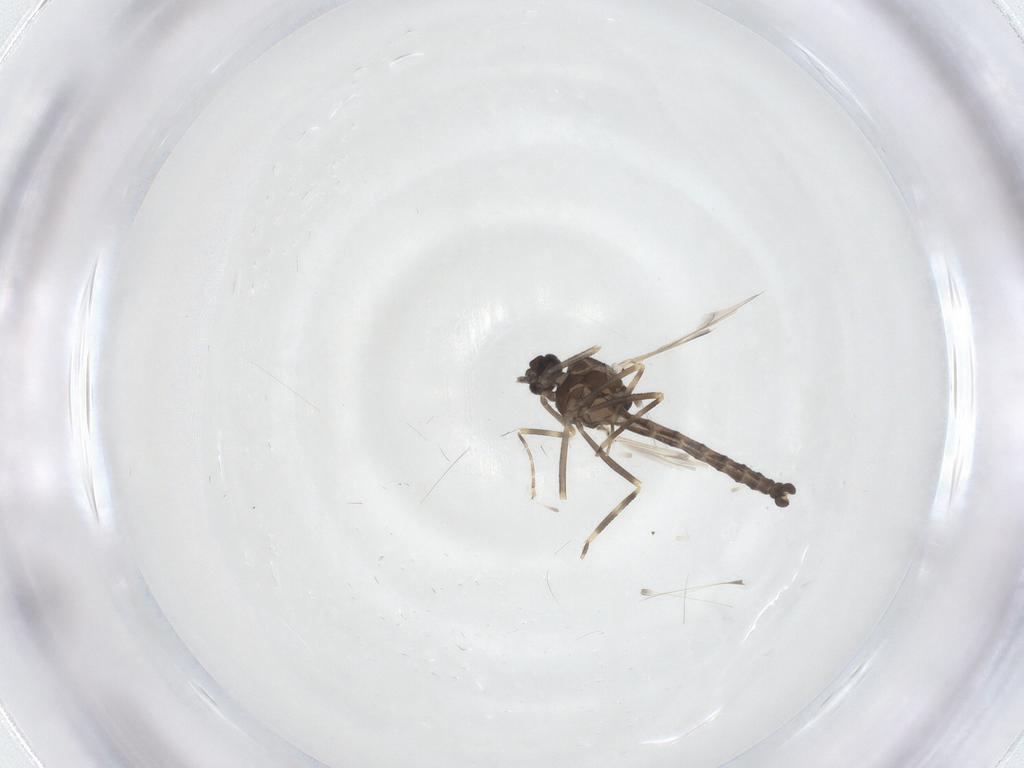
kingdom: Animalia
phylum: Arthropoda
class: Insecta
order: Diptera
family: Ceratopogonidae
